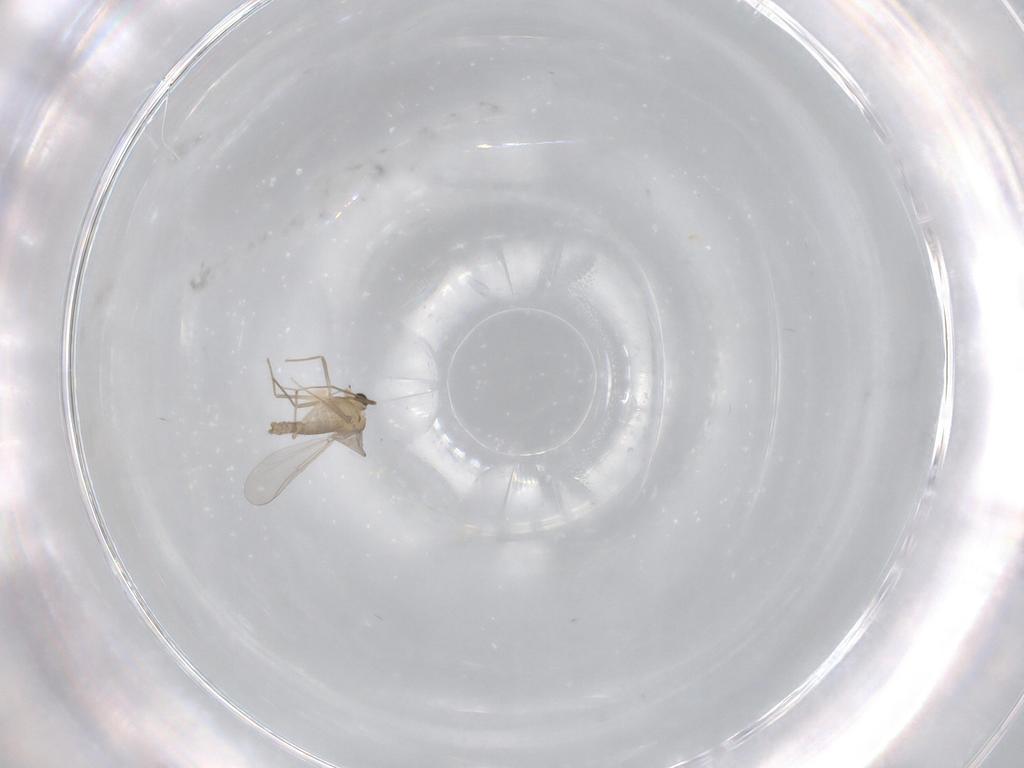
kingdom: Animalia
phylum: Arthropoda
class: Insecta
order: Diptera
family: Chironomidae
